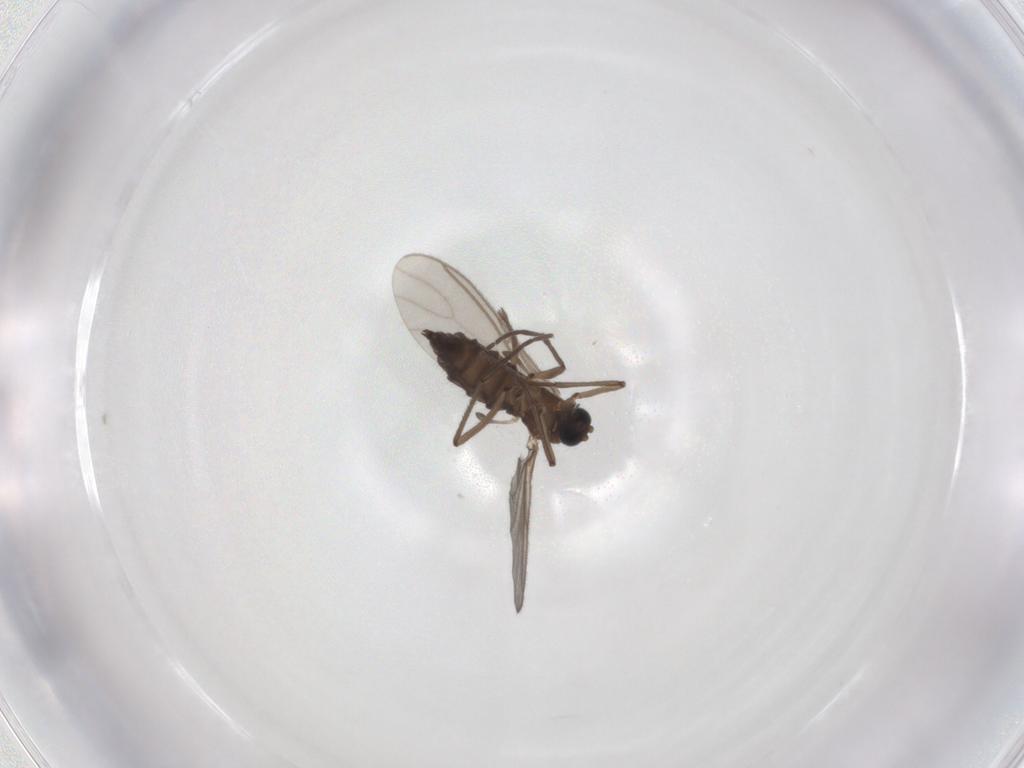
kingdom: Animalia
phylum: Arthropoda
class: Insecta
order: Diptera
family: Sciaridae
